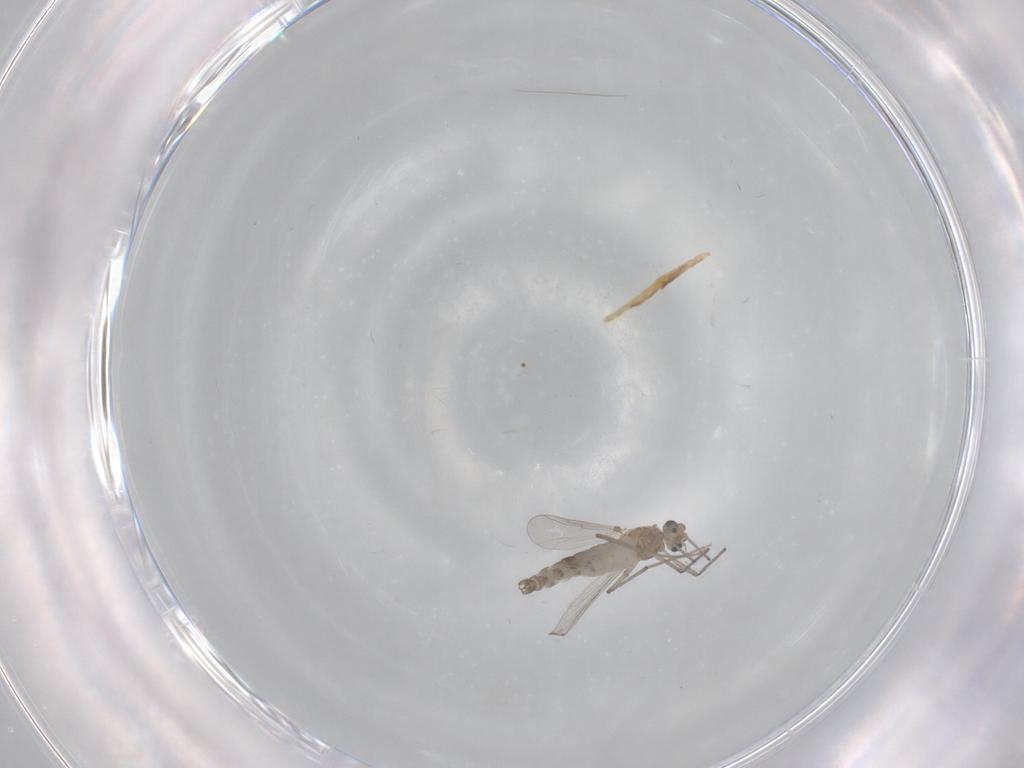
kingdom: Animalia
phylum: Arthropoda
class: Insecta
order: Diptera
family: Chironomidae
